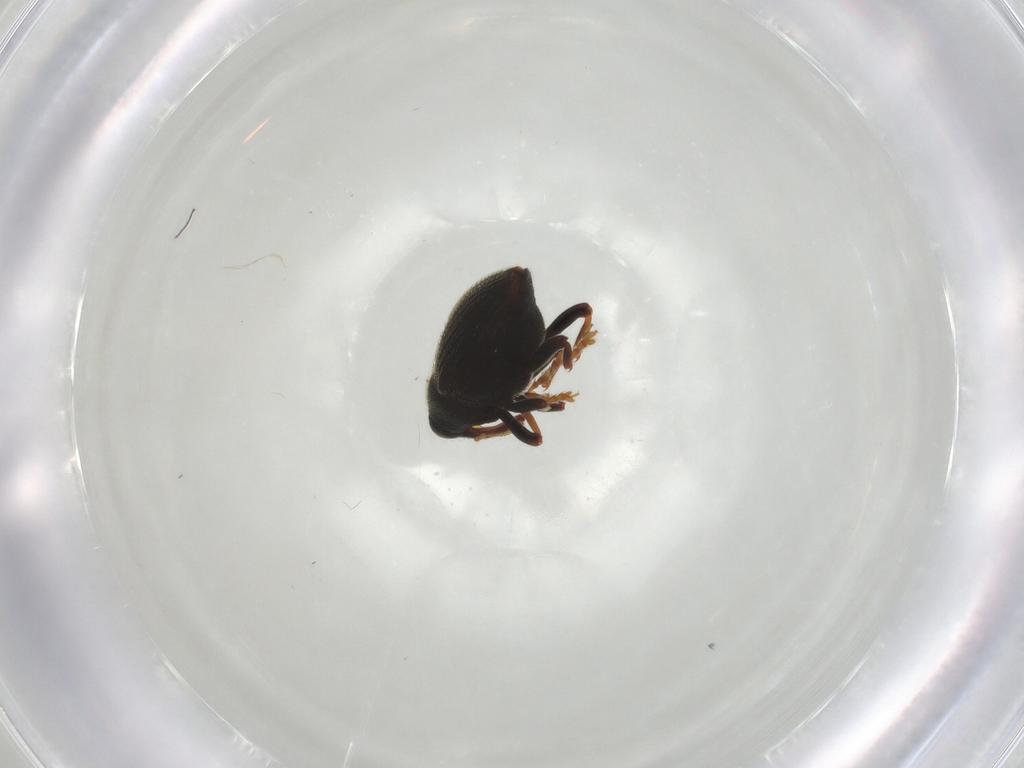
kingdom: Animalia
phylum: Arthropoda
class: Insecta
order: Coleoptera
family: Curculionidae
